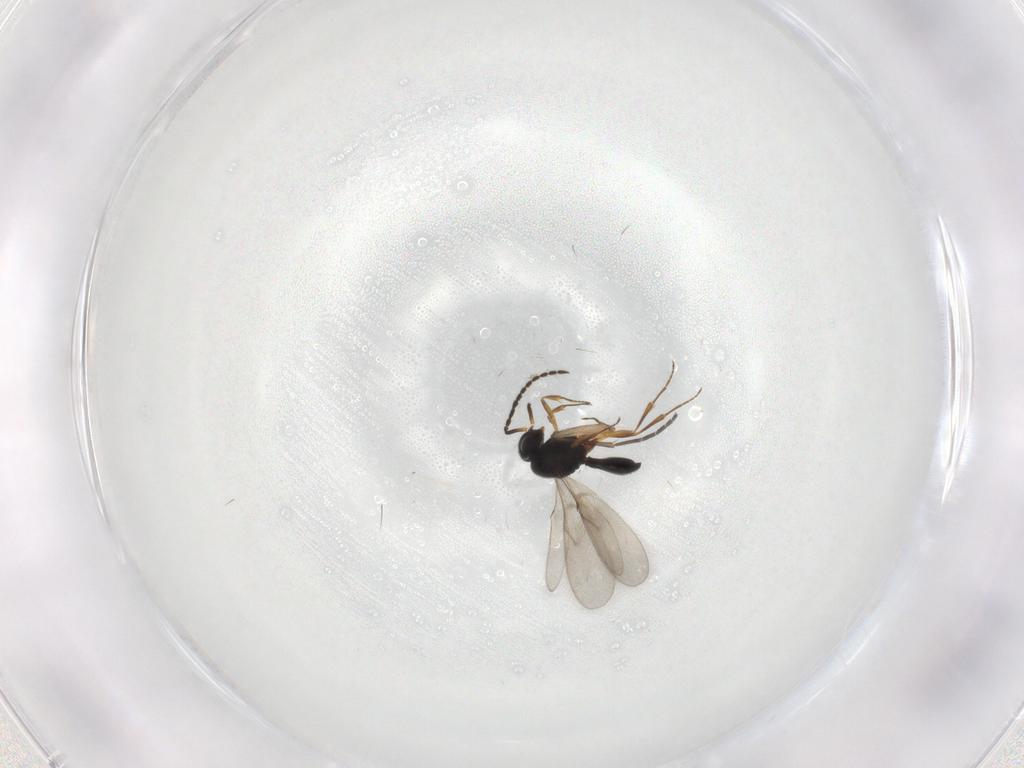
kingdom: Animalia
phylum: Arthropoda
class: Insecta
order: Hymenoptera
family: Scelionidae
